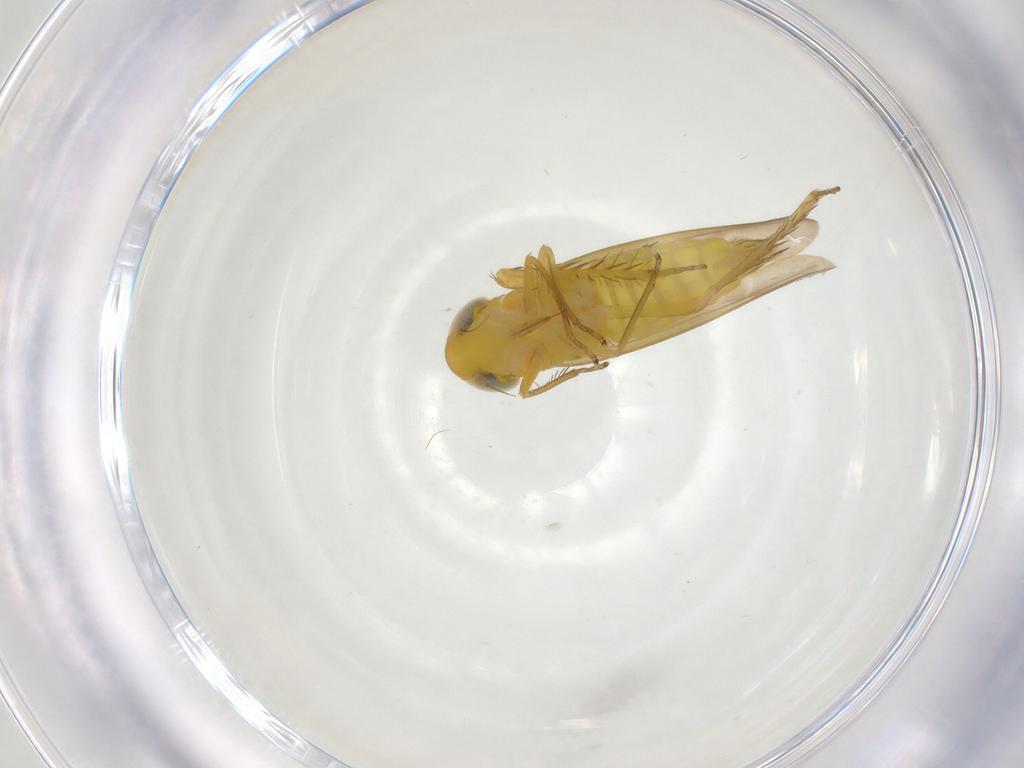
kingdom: Animalia
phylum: Arthropoda
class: Insecta
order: Hemiptera
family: Cicadellidae
